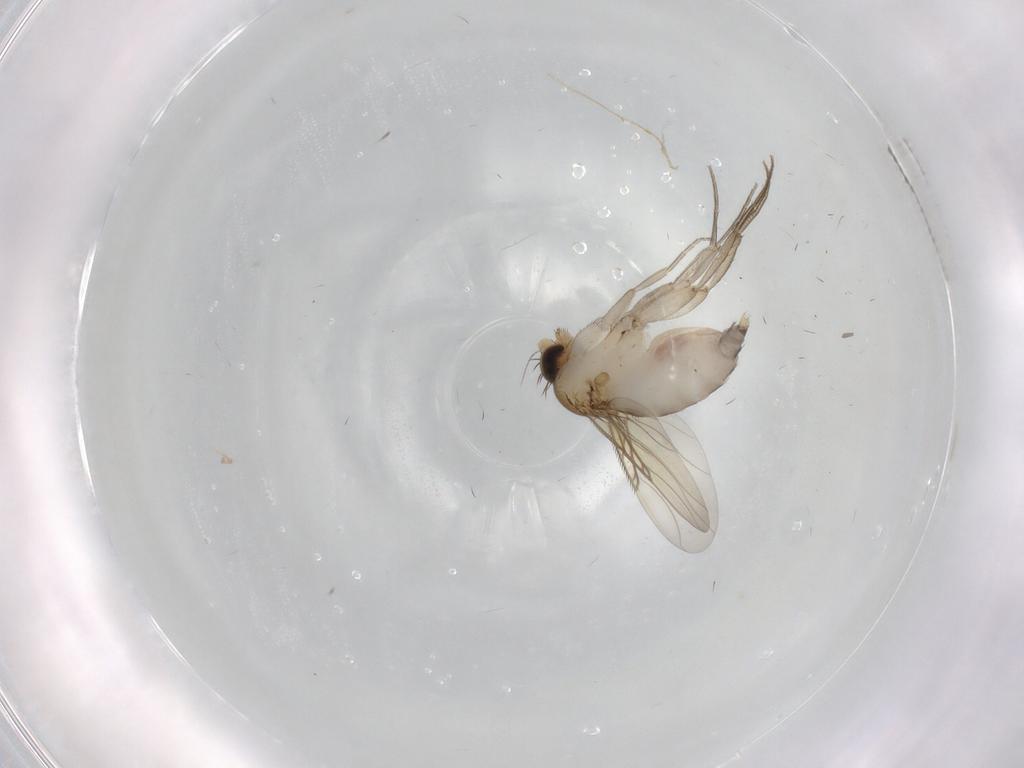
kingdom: Animalia
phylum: Arthropoda
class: Insecta
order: Diptera
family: Phoridae
